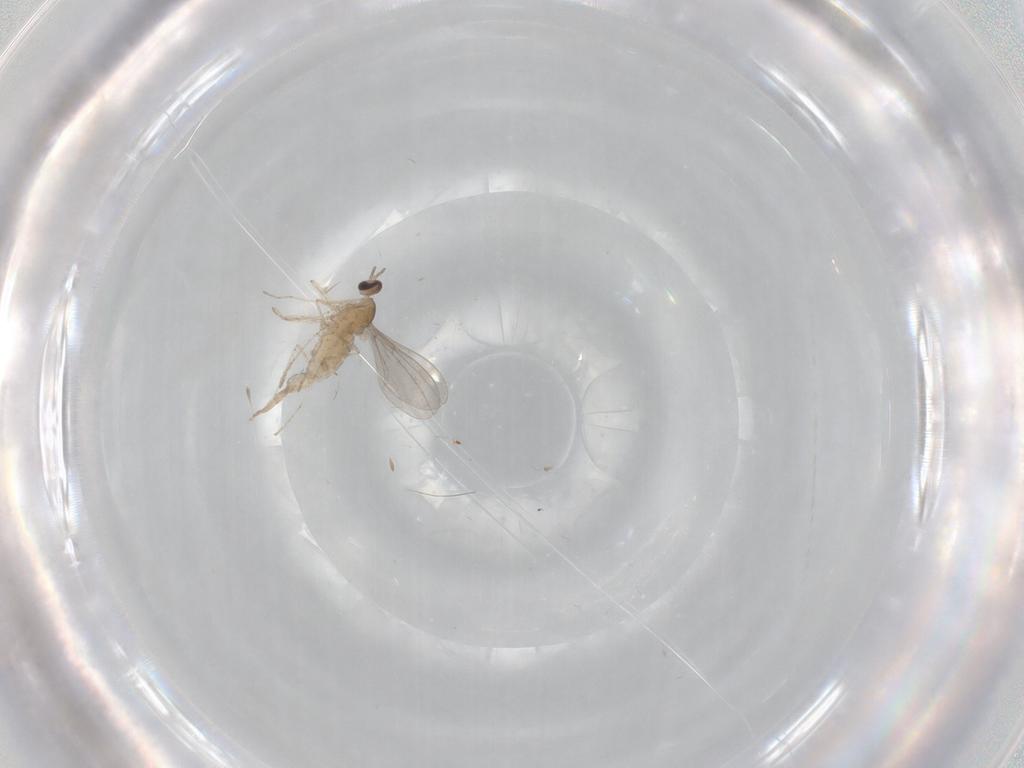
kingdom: Animalia
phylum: Arthropoda
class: Insecta
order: Diptera
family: Cecidomyiidae
